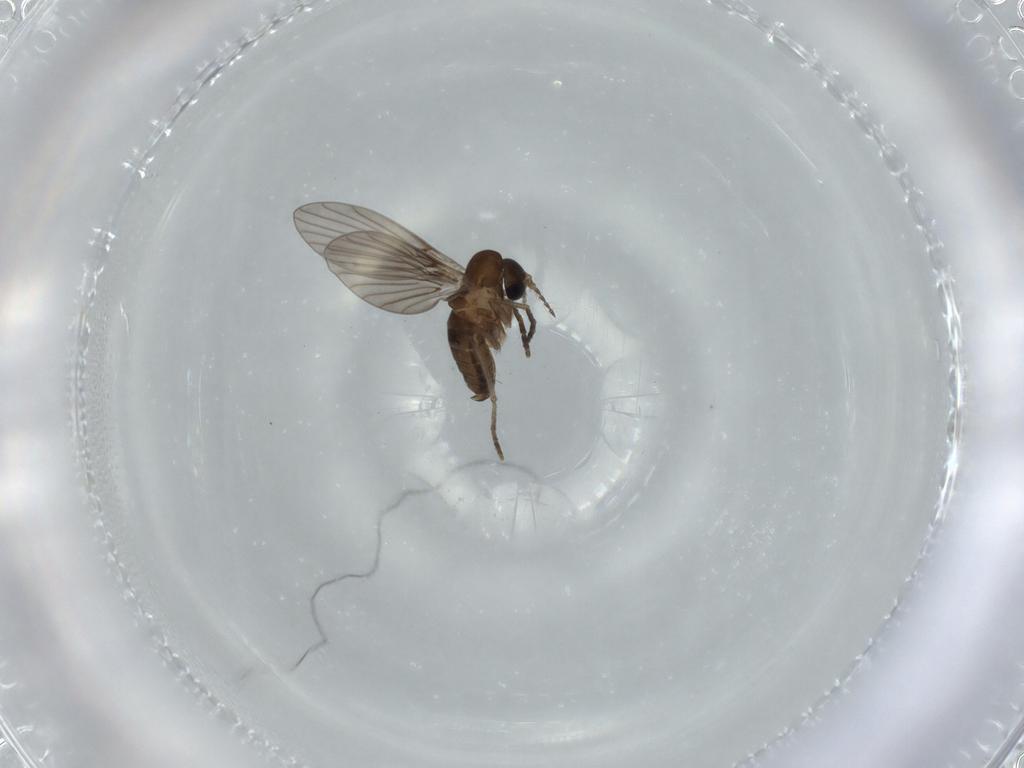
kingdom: Animalia
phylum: Arthropoda
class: Insecta
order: Diptera
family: Psychodidae
